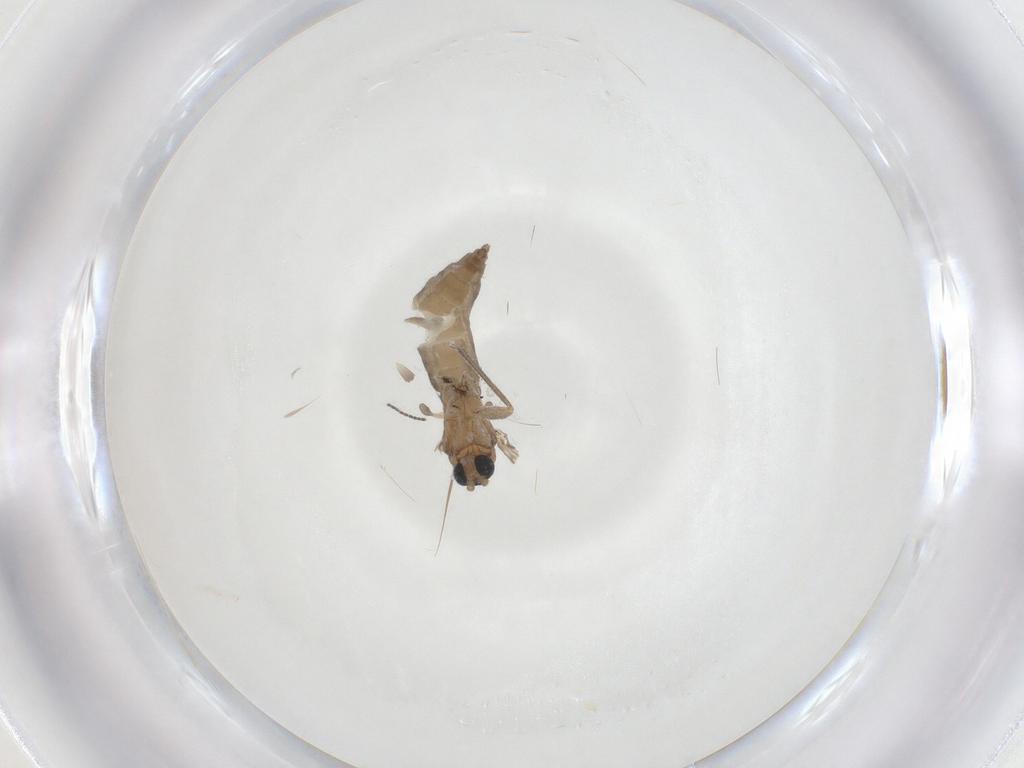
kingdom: Animalia
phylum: Arthropoda
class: Insecta
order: Diptera
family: Sciaridae
